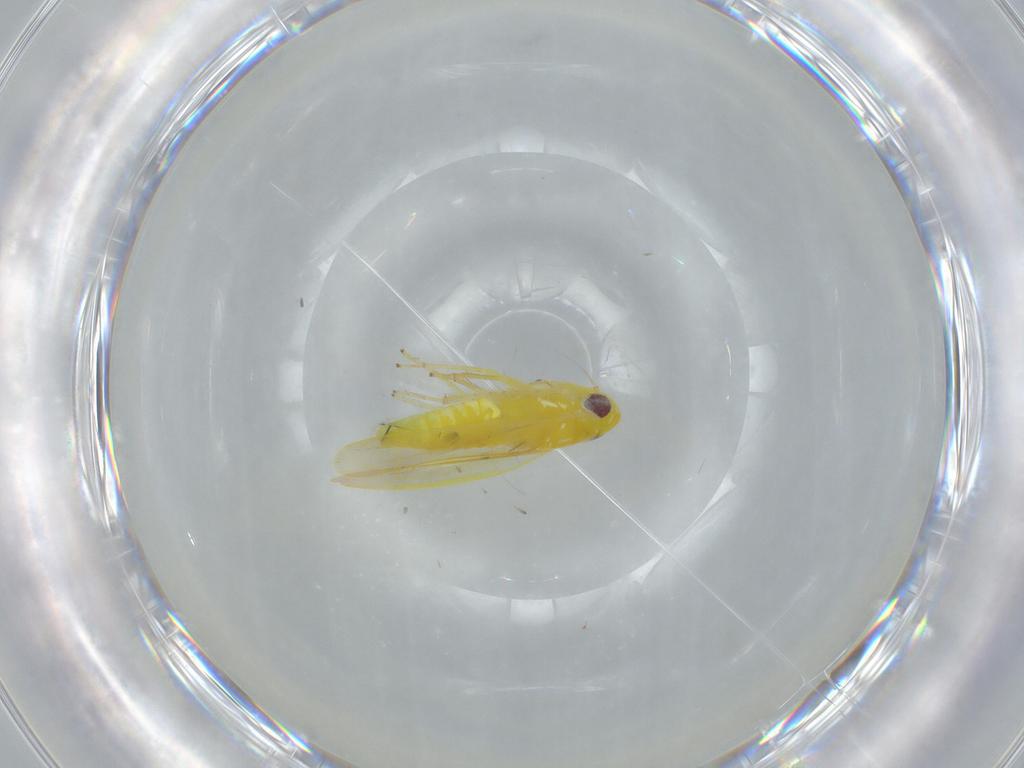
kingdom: Animalia
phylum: Arthropoda
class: Insecta
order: Hemiptera
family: Cicadellidae
